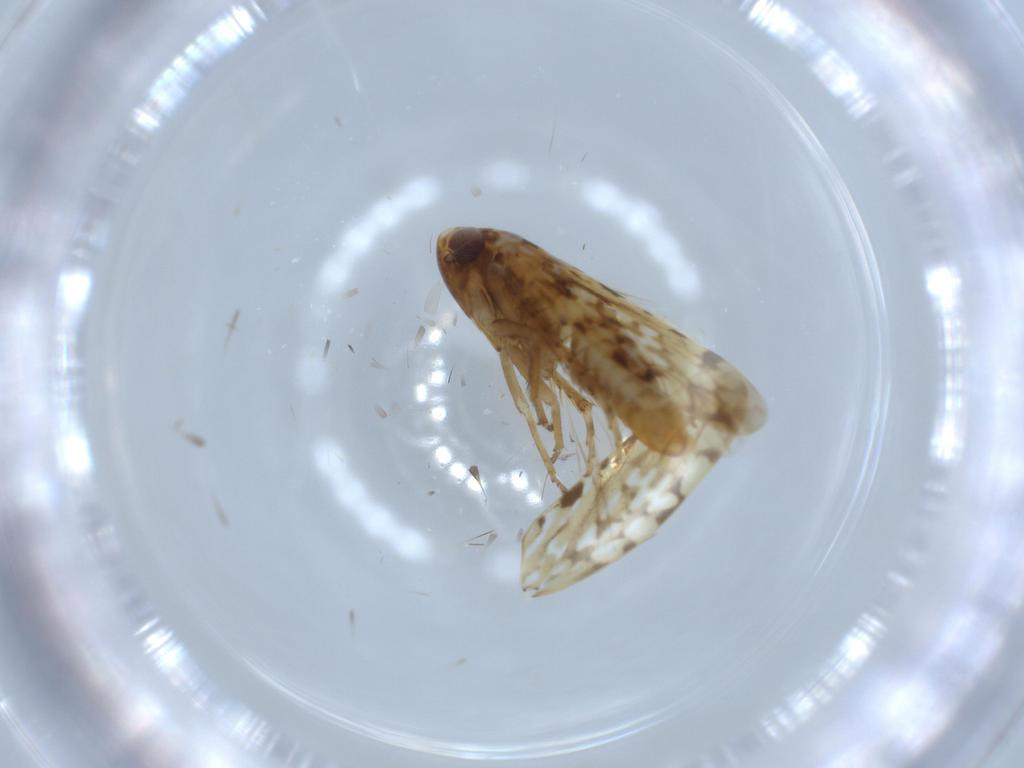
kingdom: Animalia
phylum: Arthropoda
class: Insecta
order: Hemiptera
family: Cicadellidae
